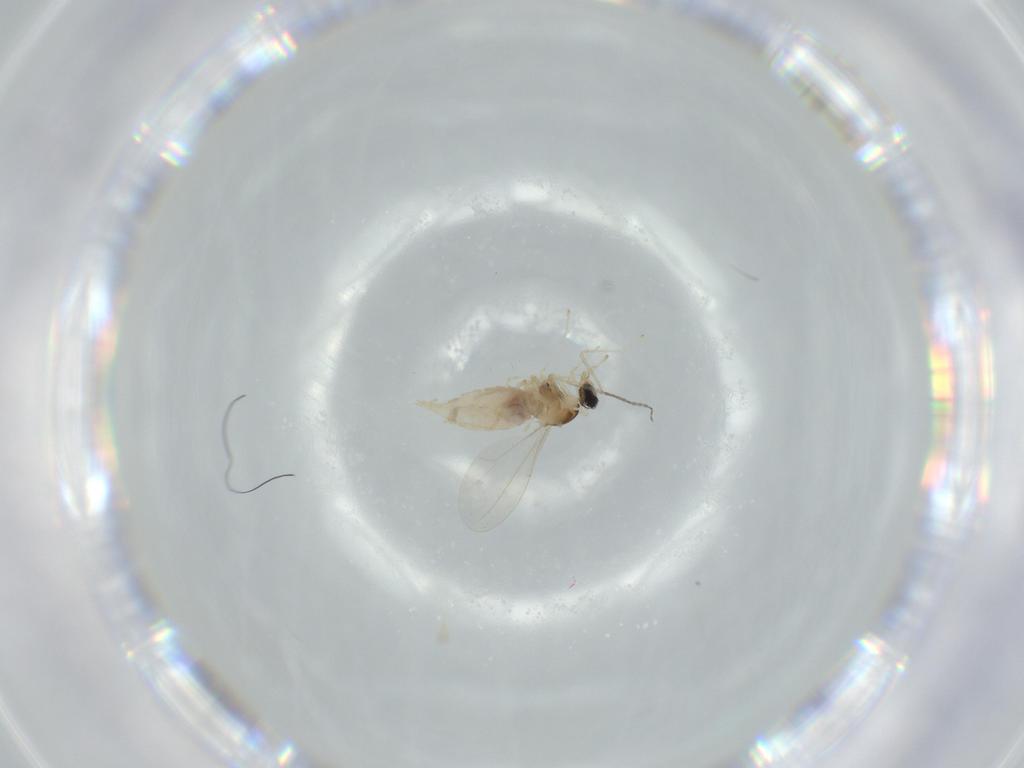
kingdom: Animalia
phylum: Arthropoda
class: Insecta
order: Diptera
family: Cecidomyiidae
